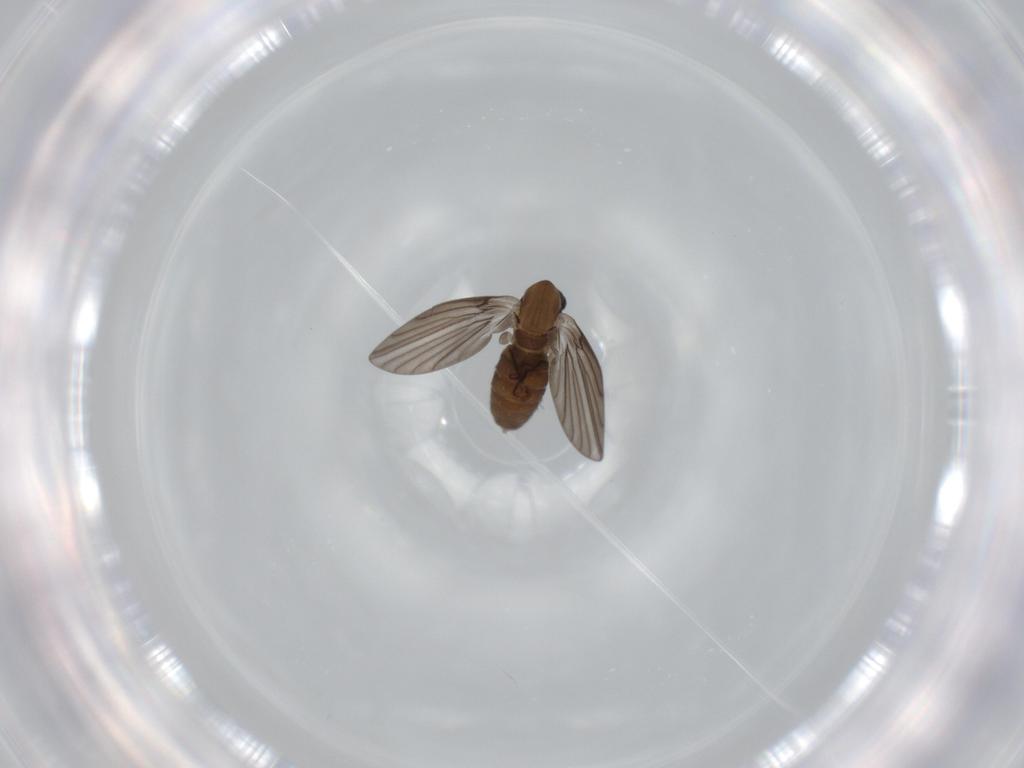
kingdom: Animalia
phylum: Arthropoda
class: Insecta
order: Diptera
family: Psychodidae
